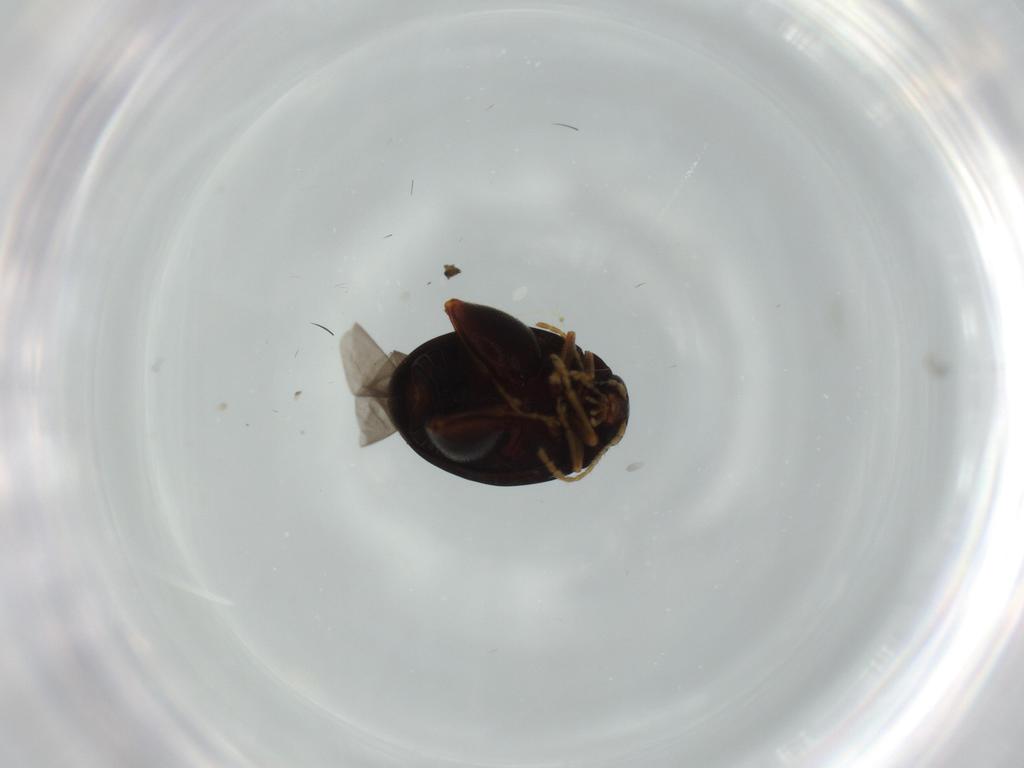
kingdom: Animalia
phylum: Arthropoda
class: Insecta
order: Coleoptera
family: Chrysomelidae
